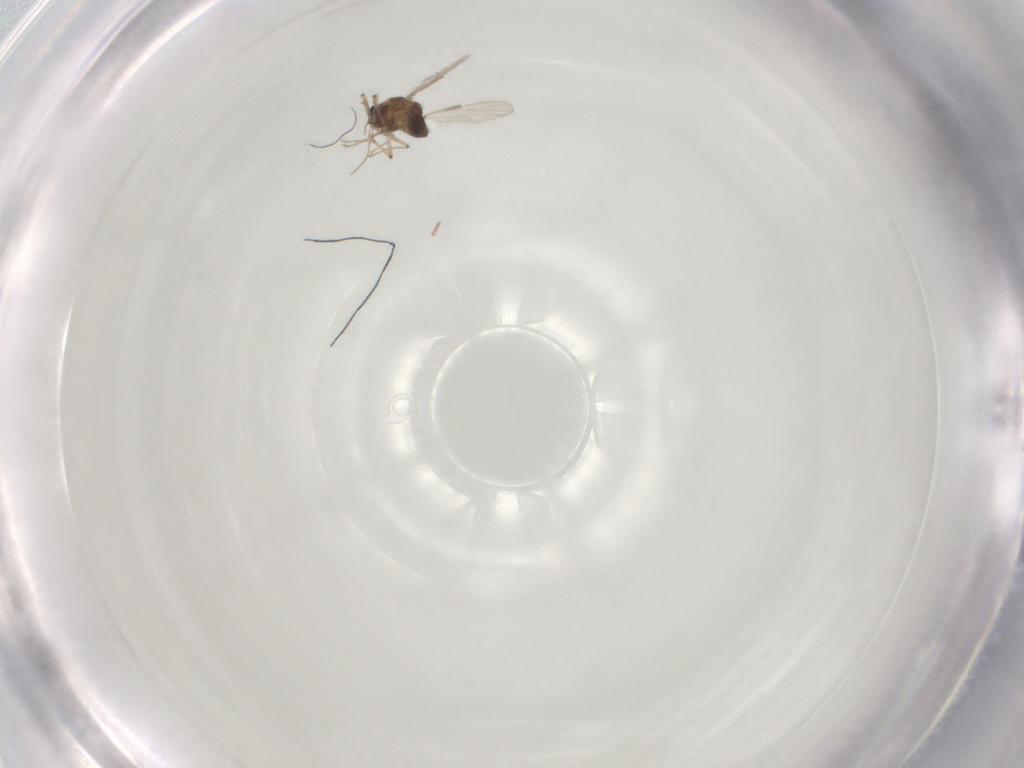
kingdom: Animalia
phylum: Arthropoda
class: Insecta
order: Diptera
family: Chironomidae
